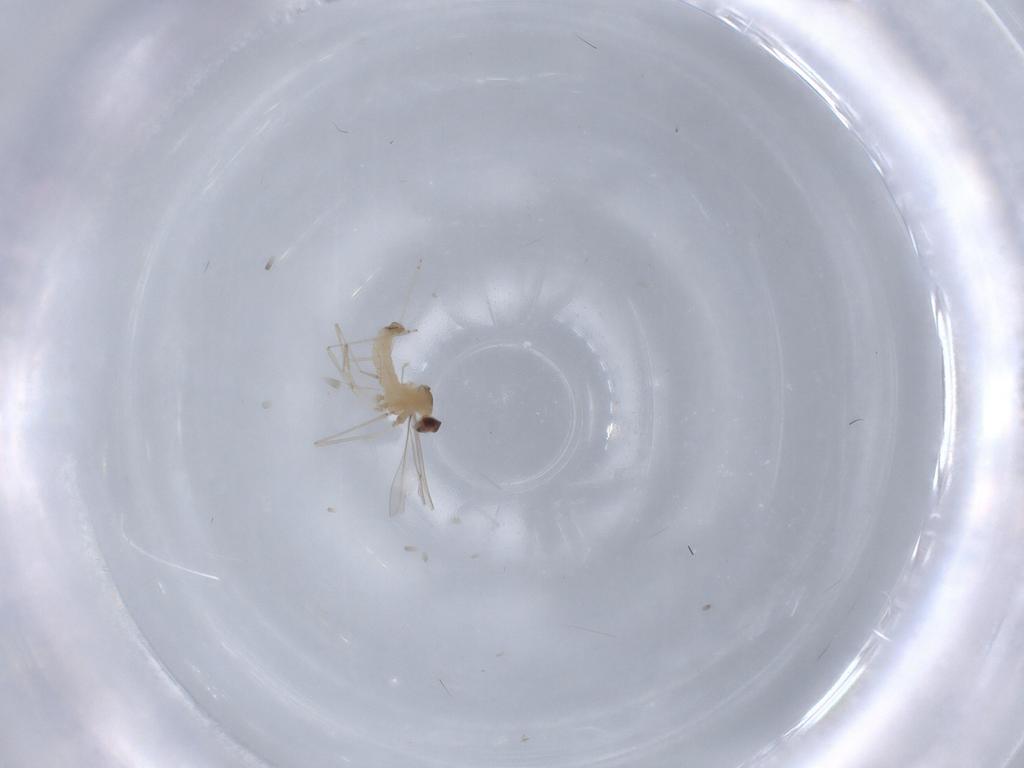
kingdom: Animalia
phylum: Arthropoda
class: Insecta
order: Diptera
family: Cecidomyiidae
